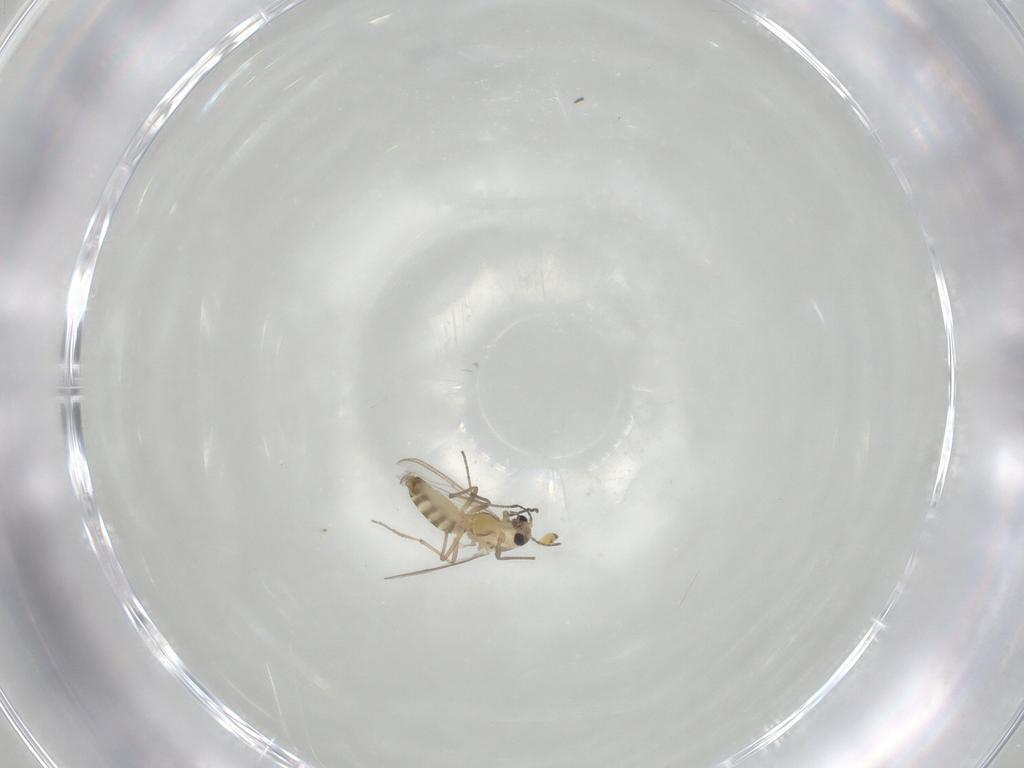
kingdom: Animalia
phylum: Arthropoda
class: Insecta
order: Diptera
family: Chironomidae
